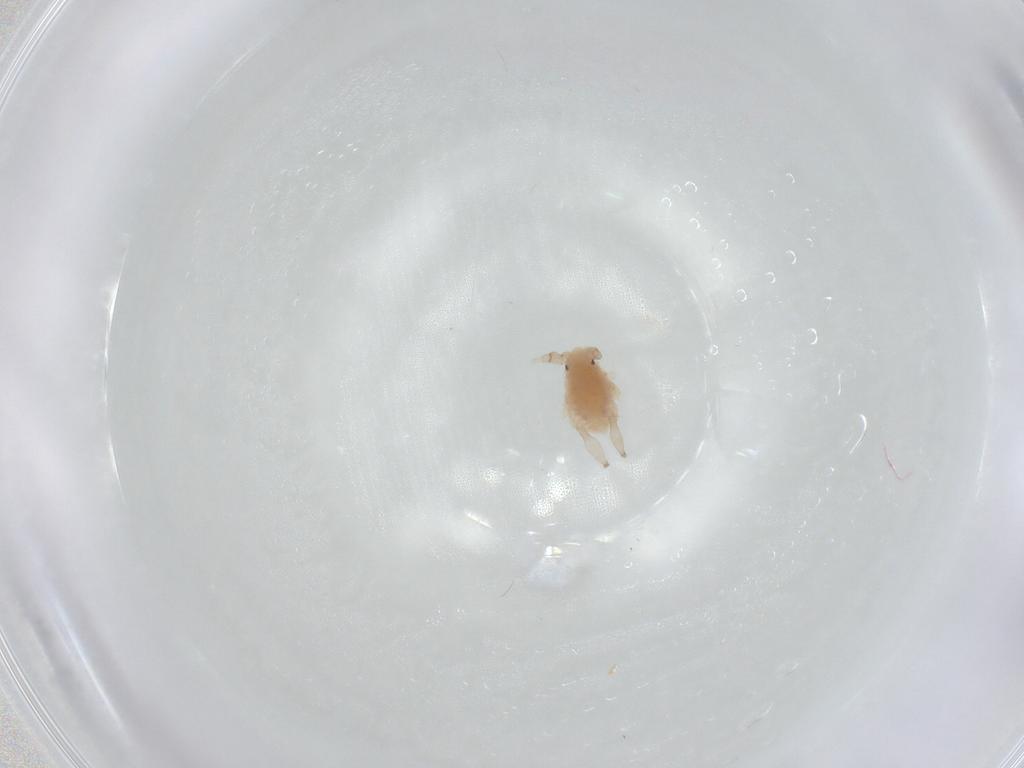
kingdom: Animalia
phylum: Arthropoda
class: Insecta
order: Hemiptera
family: Aphididae
